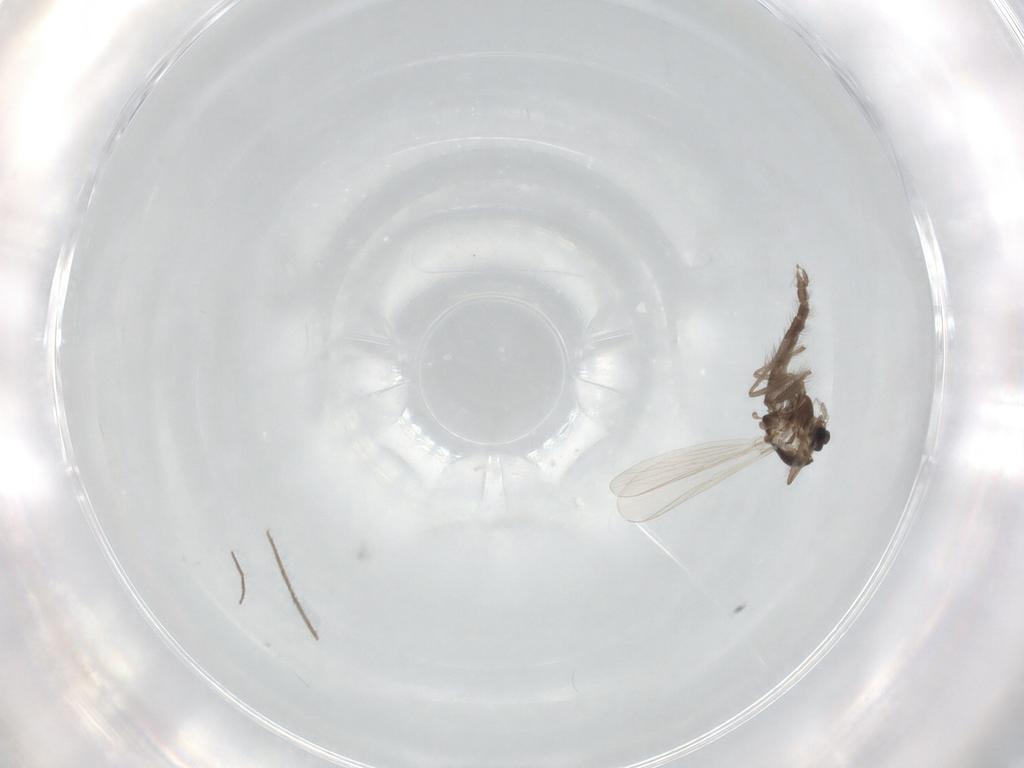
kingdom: Animalia
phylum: Arthropoda
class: Insecta
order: Diptera
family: Chironomidae
